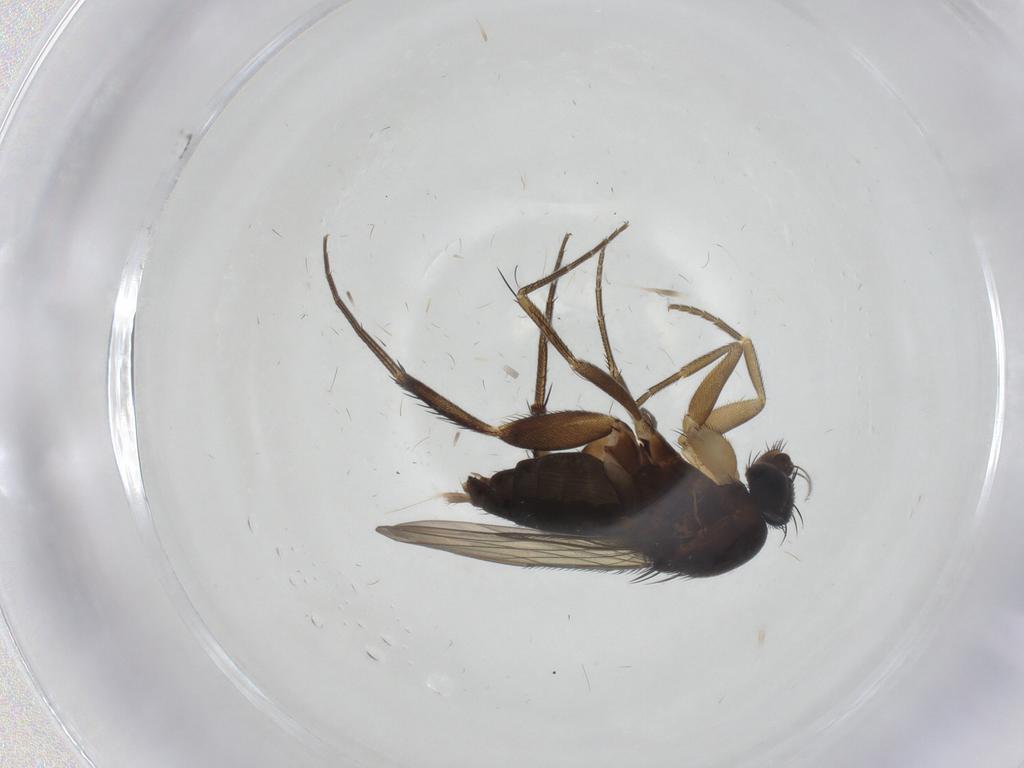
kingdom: Animalia
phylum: Arthropoda
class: Insecta
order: Diptera
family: Phoridae
